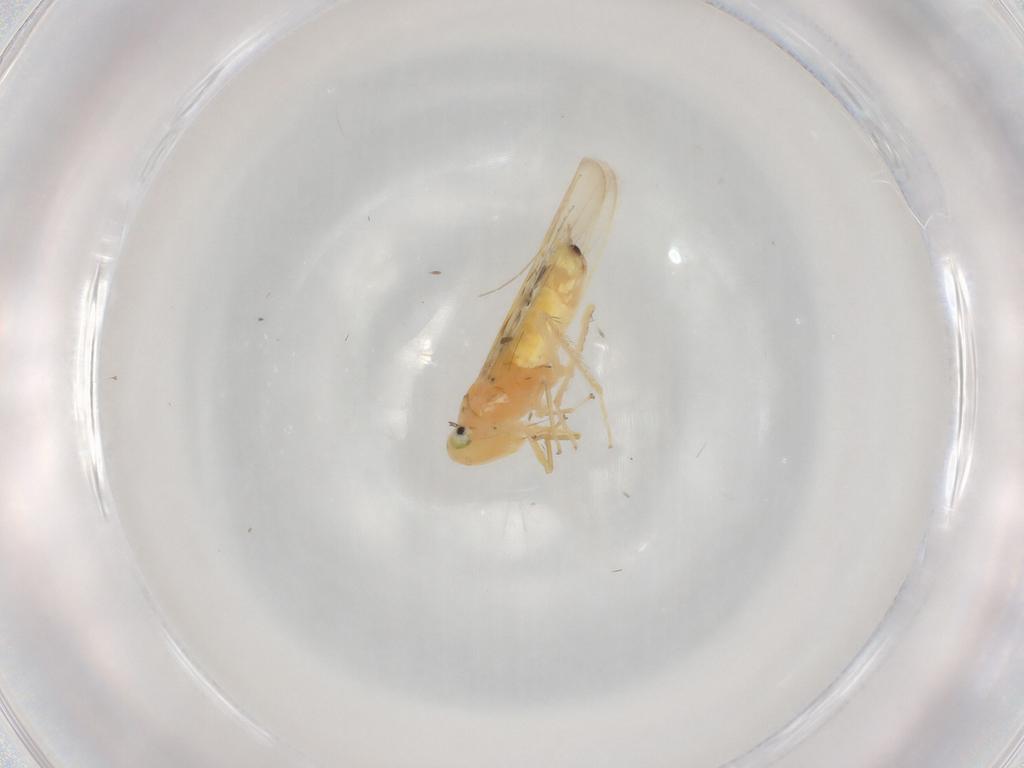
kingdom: Animalia
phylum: Arthropoda
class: Insecta
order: Hemiptera
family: Cicadellidae
